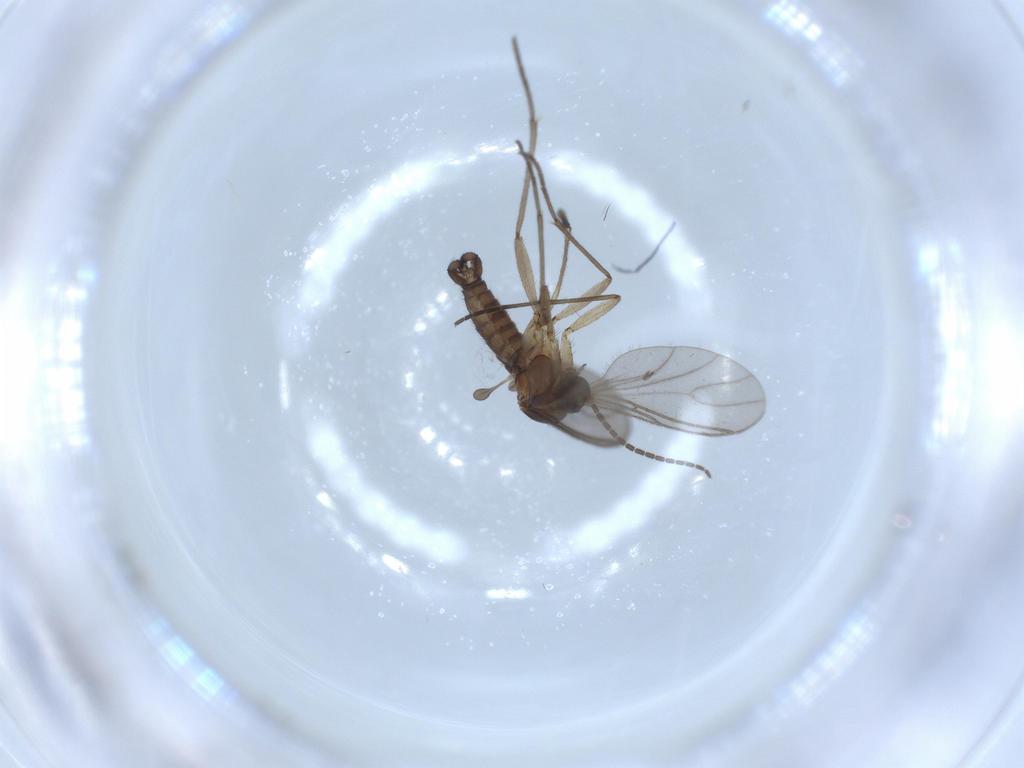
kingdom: Animalia
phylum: Arthropoda
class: Insecta
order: Diptera
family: Sciaridae
